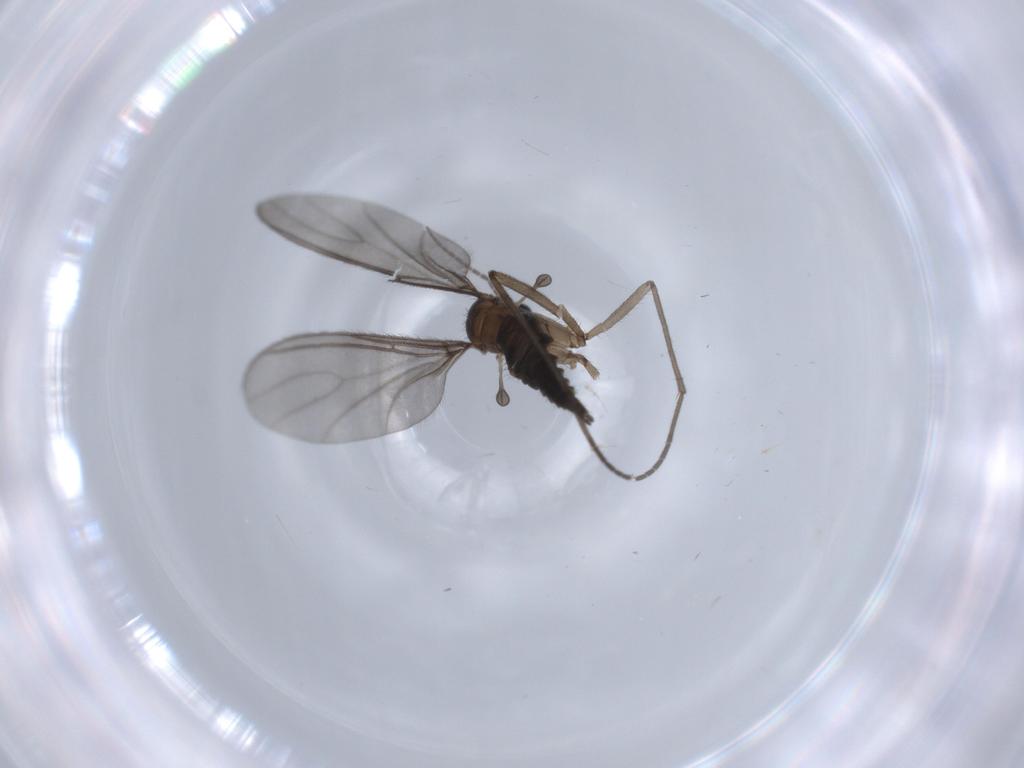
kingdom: Animalia
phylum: Arthropoda
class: Insecta
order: Diptera
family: Sciaridae
